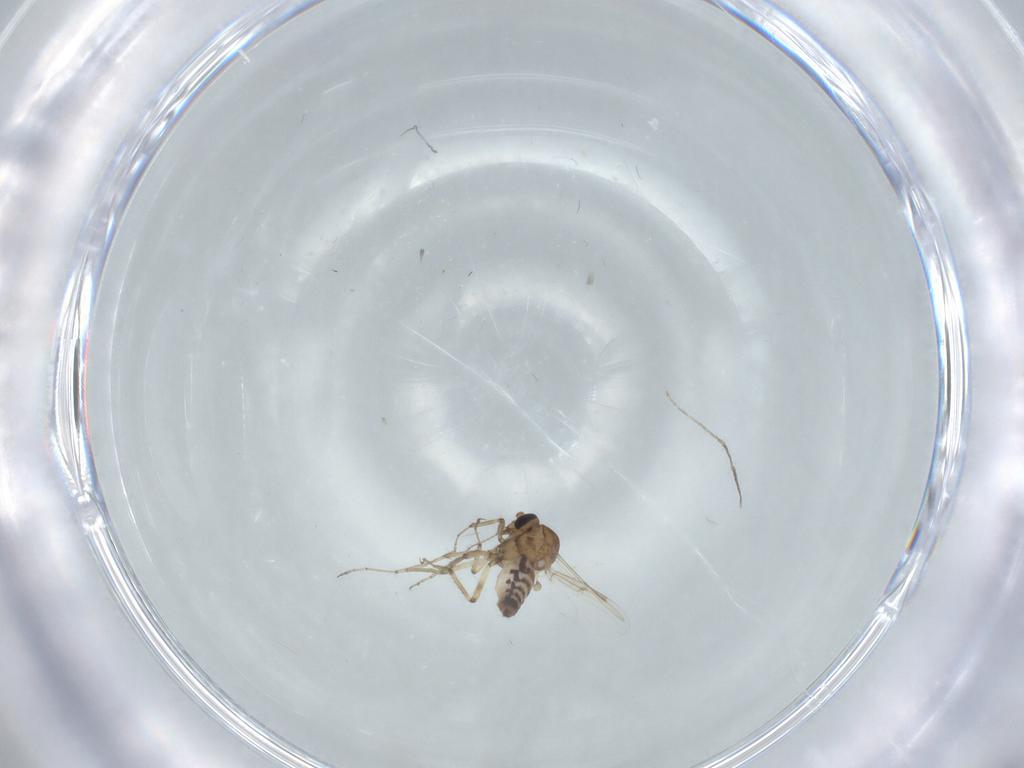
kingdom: Animalia
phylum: Arthropoda
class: Insecta
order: Diptera
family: Ceratopogonidae
